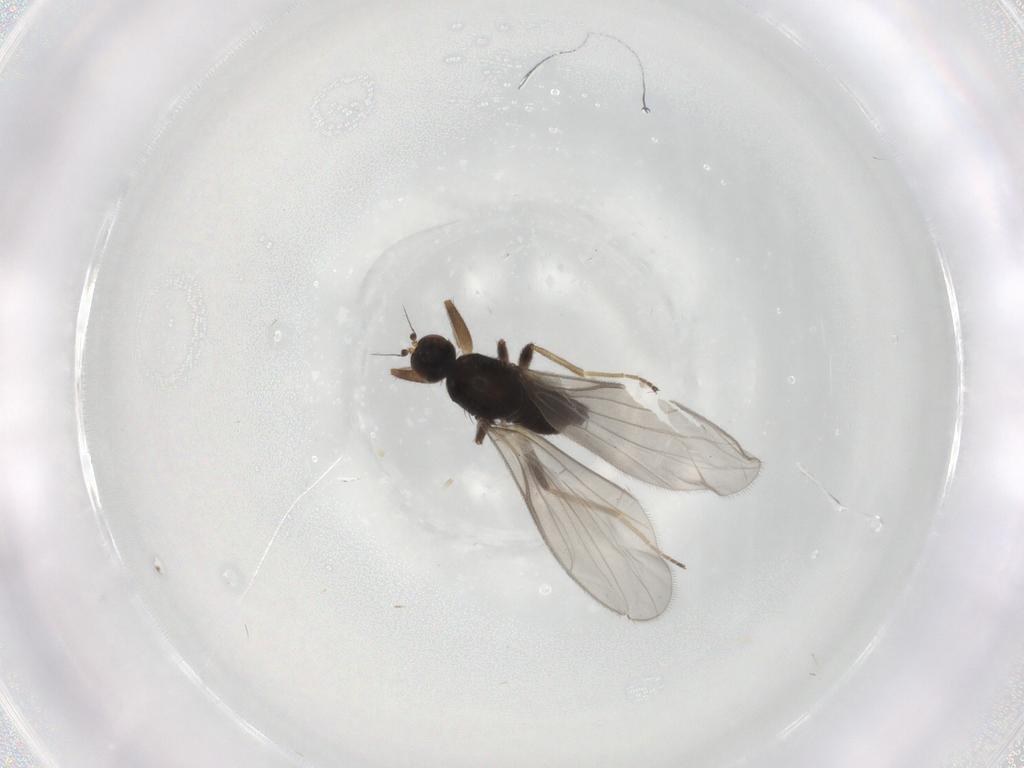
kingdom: Animalia
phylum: Arthropoda
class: Insecta
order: Diptera
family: Hybotidae
